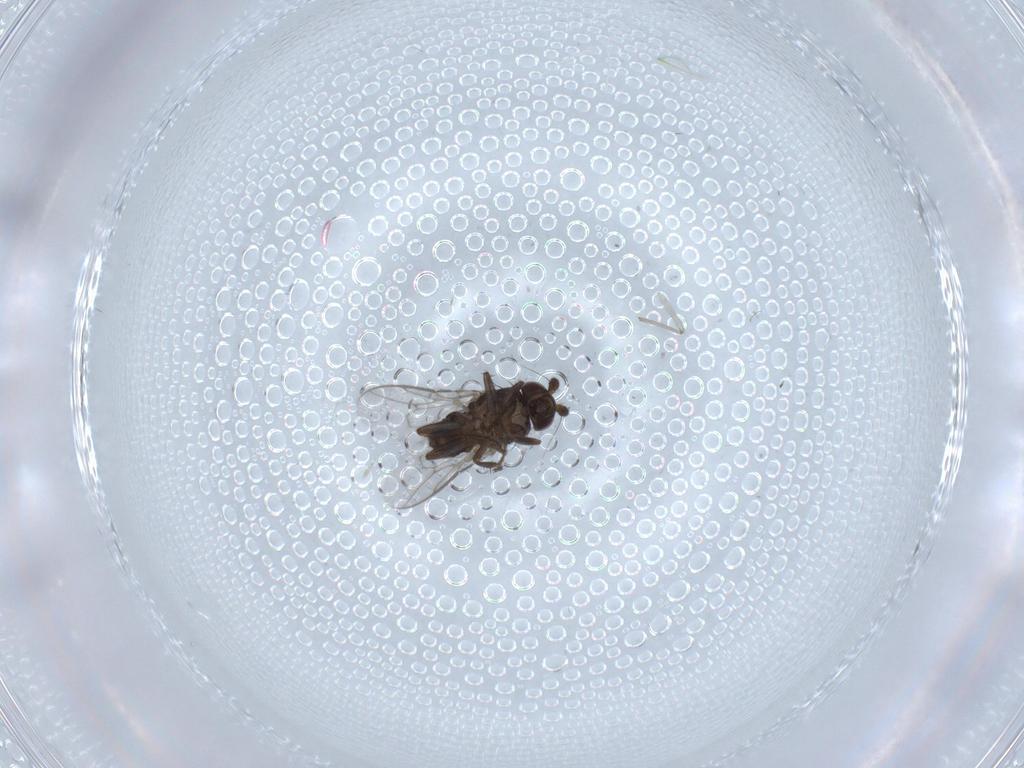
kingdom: Animalia
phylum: Arthropoda
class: Insecta
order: Diptera
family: Sphaeroceridae
